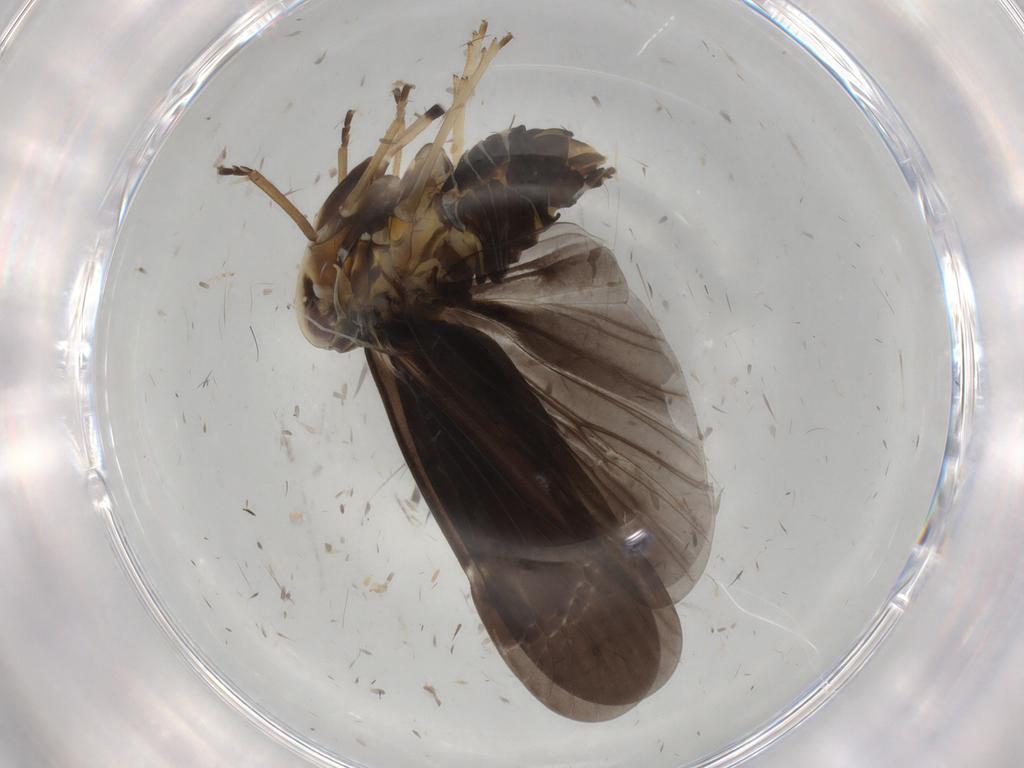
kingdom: Animalia
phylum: Arthropoda
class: Insecta
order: Hemiptera
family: Derbidae
